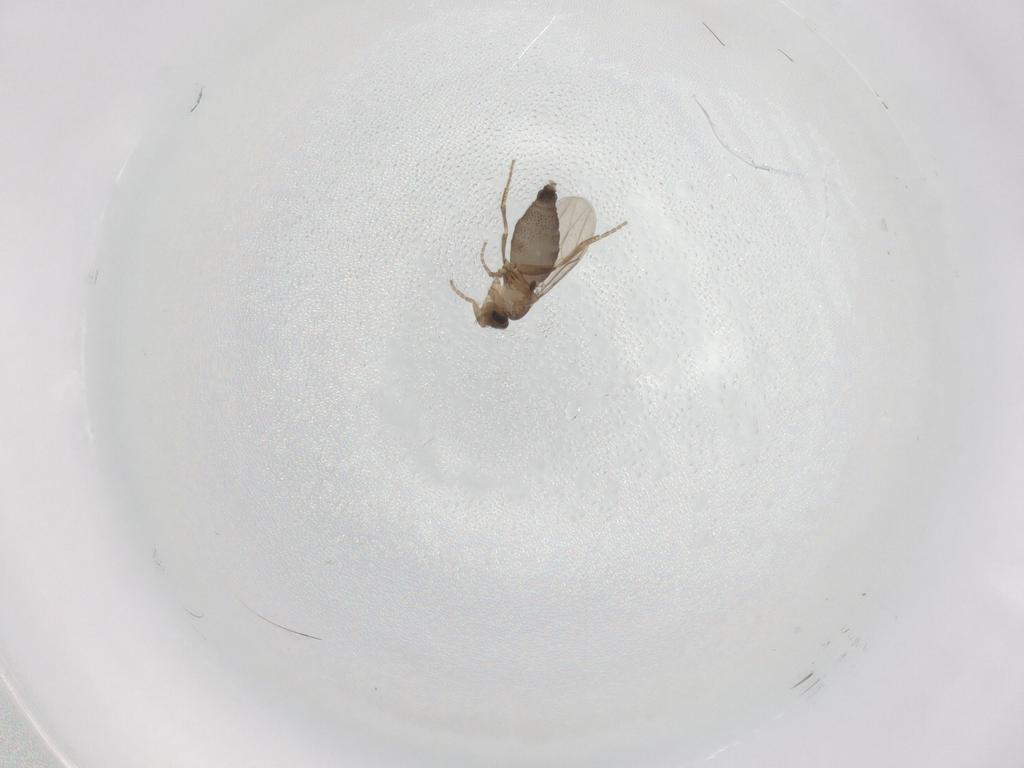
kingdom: Animalia
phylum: Arthropoda
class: Insecta
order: Diptera
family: Phoridae
